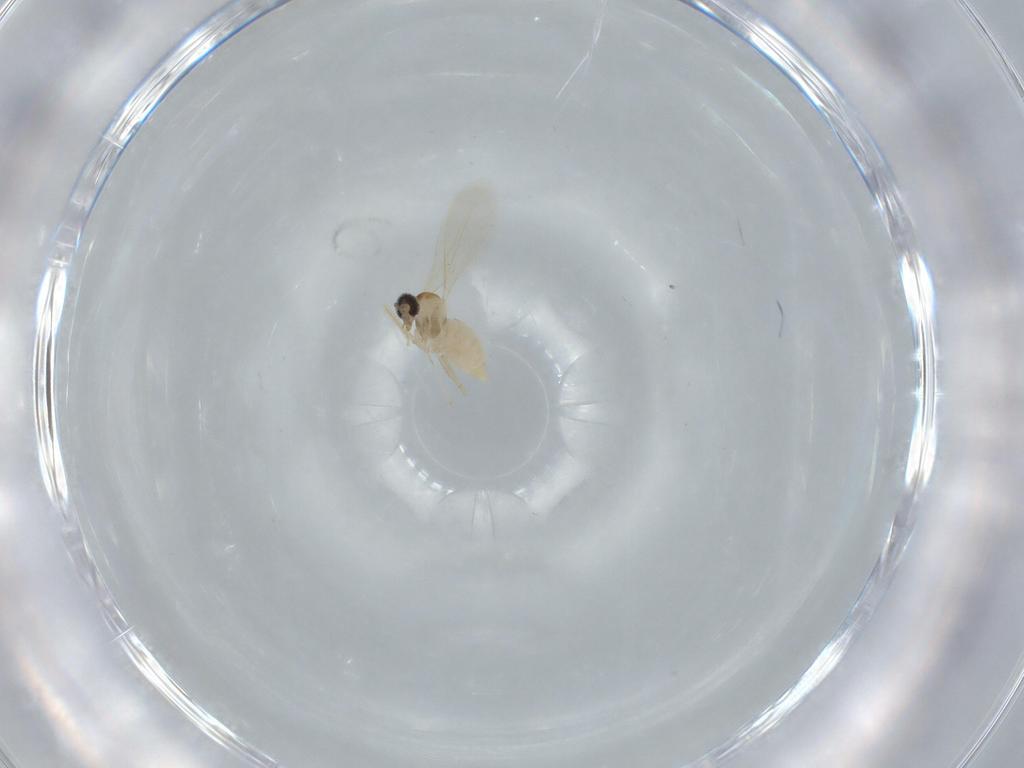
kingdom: Animalia
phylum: Arthropoda
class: Insecta
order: Diptera
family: Cecidomyiidae
